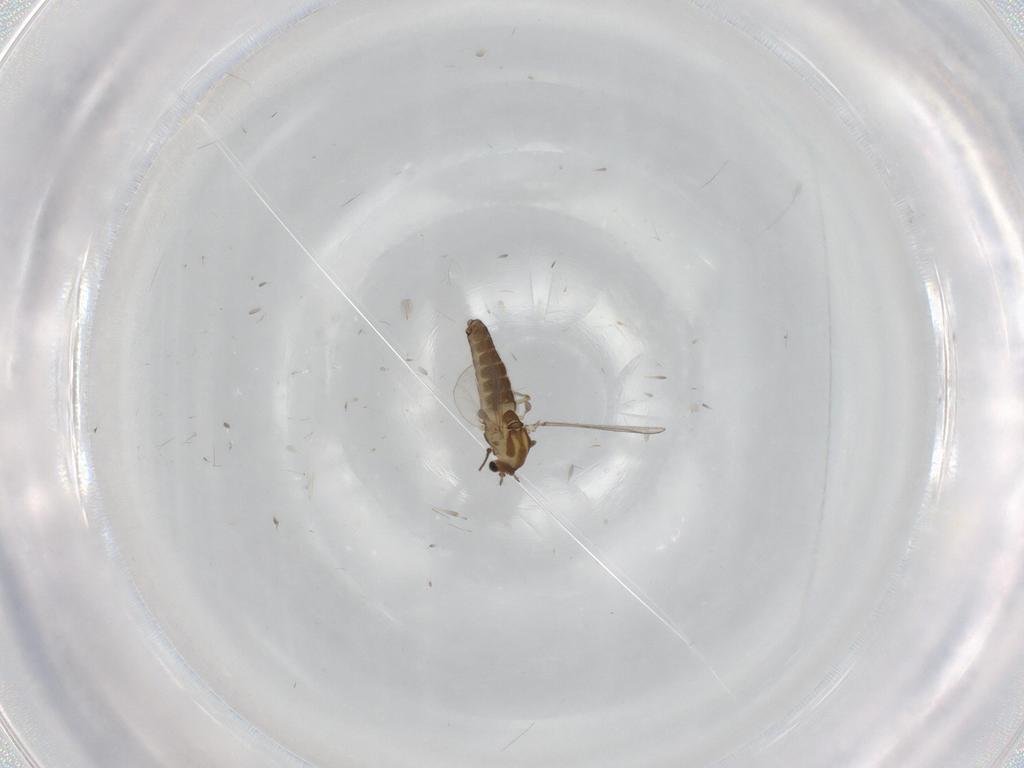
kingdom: Animalia
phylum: Arthropoda
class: Insecta
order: Diptera
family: Chironomidae
